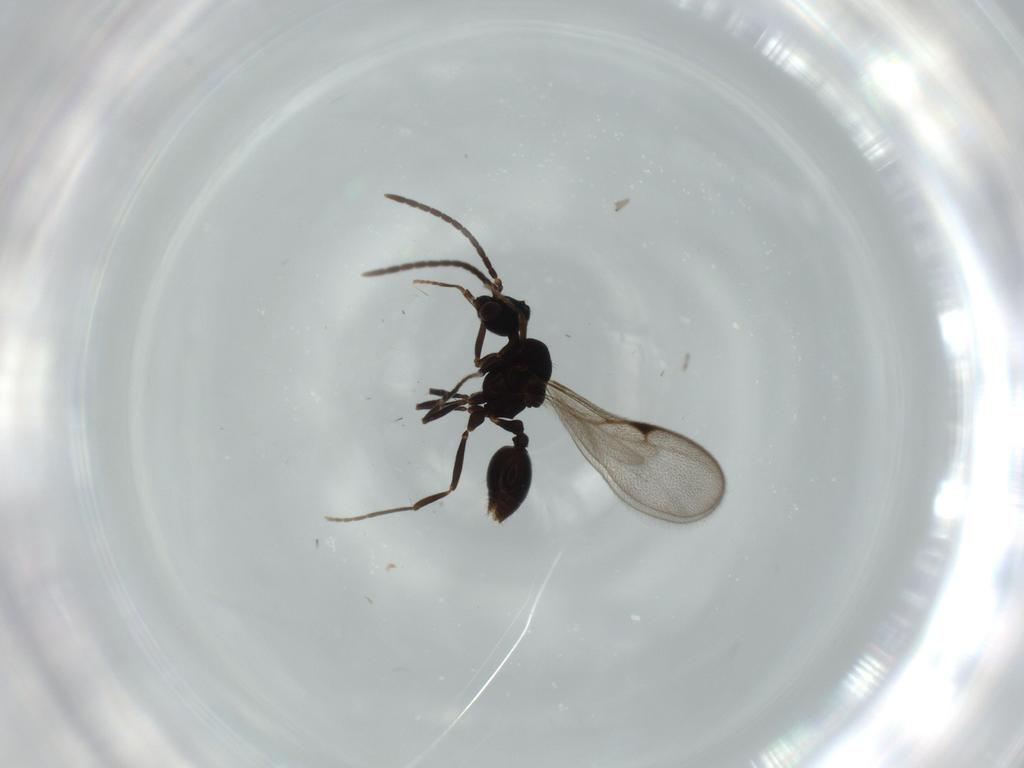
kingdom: Animalia
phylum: Arthropoda
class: Insecta
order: Hymenoptera
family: Formicidae
